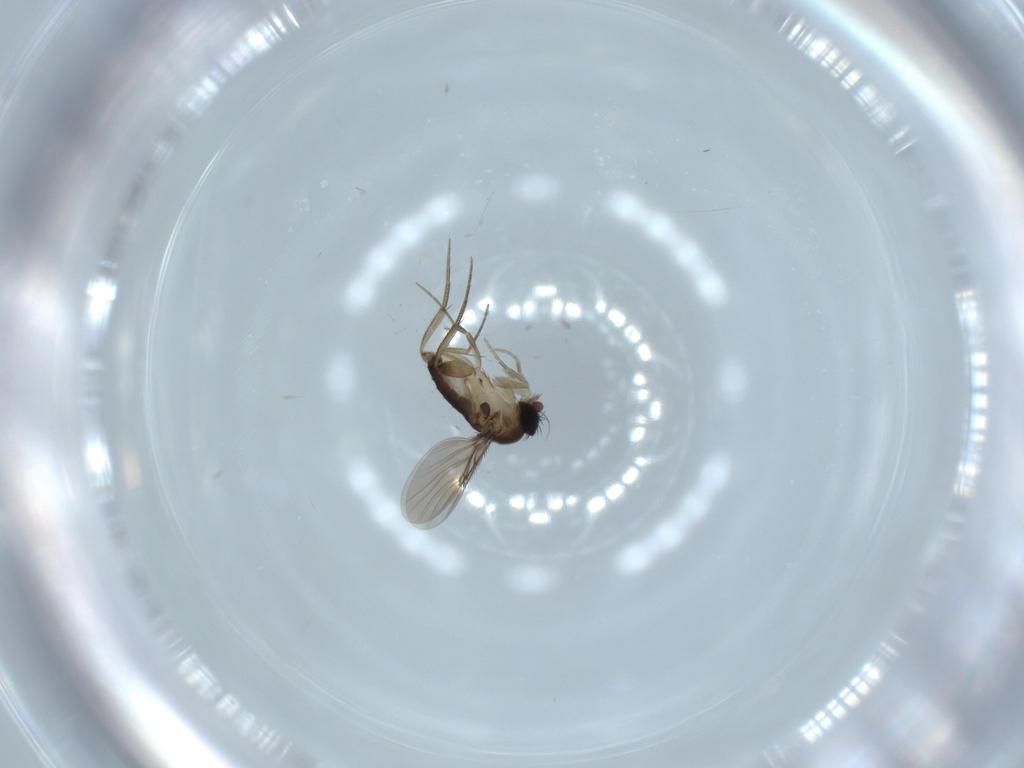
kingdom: Animalia
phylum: Arthropoda
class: Insecta
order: Diptera
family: Phoridae
